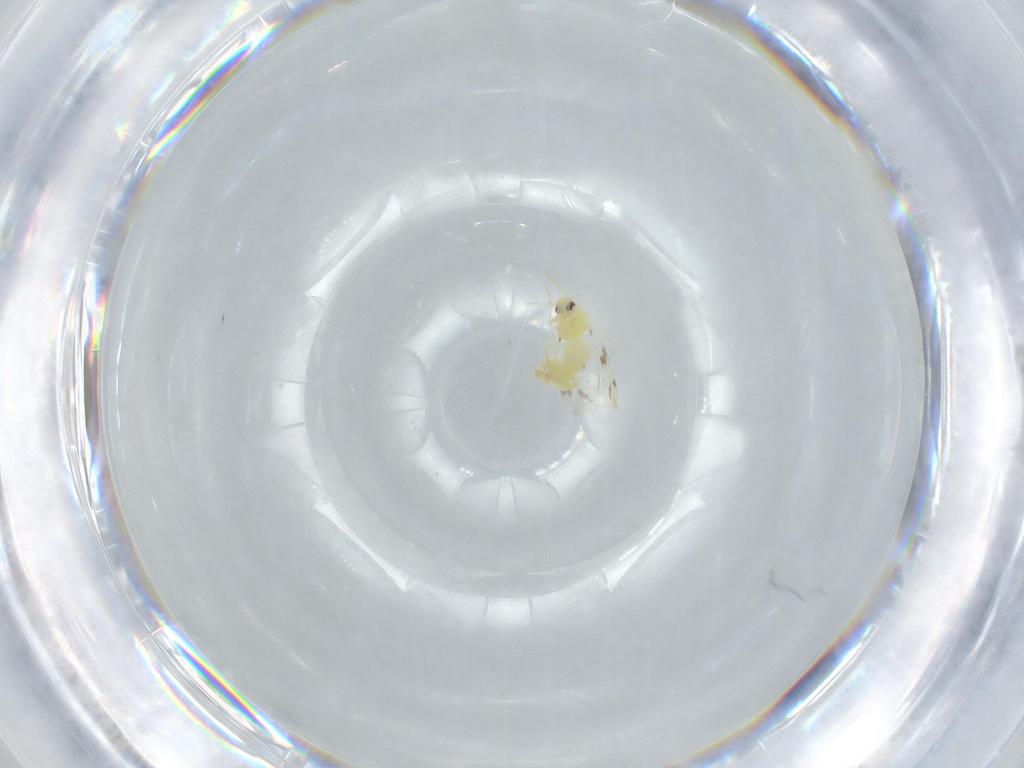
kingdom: Animalia
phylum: Arthropoda
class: Insecta
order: Hemiptera
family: Aleyrodidae
